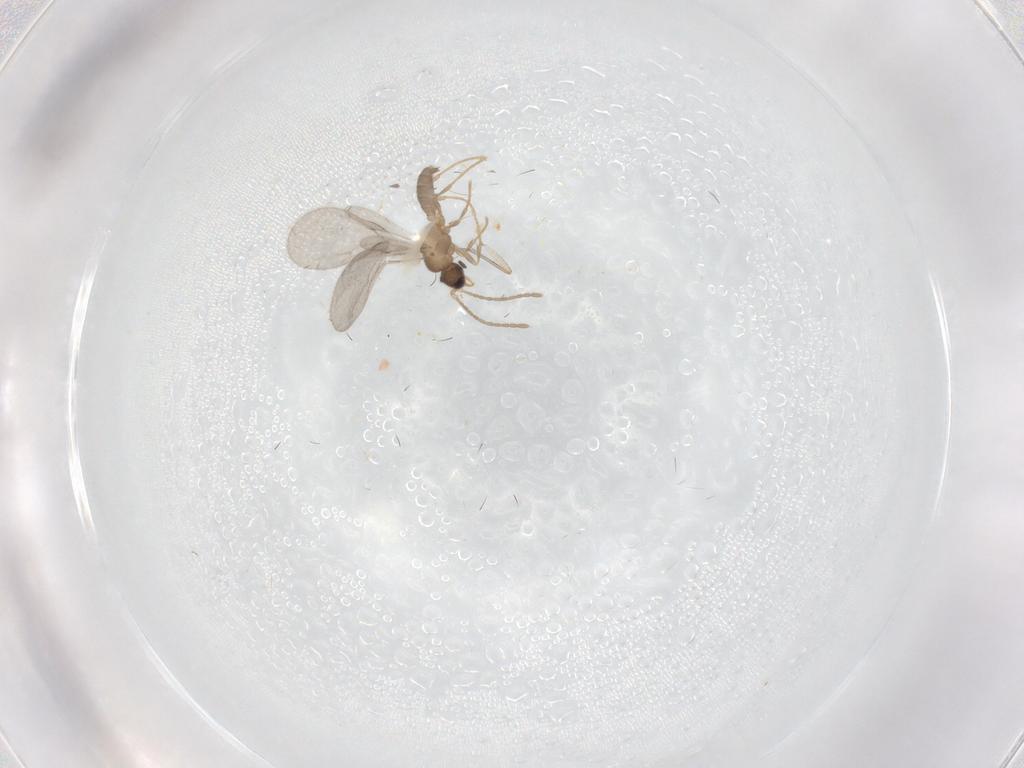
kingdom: Animalia
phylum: Arthropoda
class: Insecta
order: Hymenoptera
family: Formicidae
